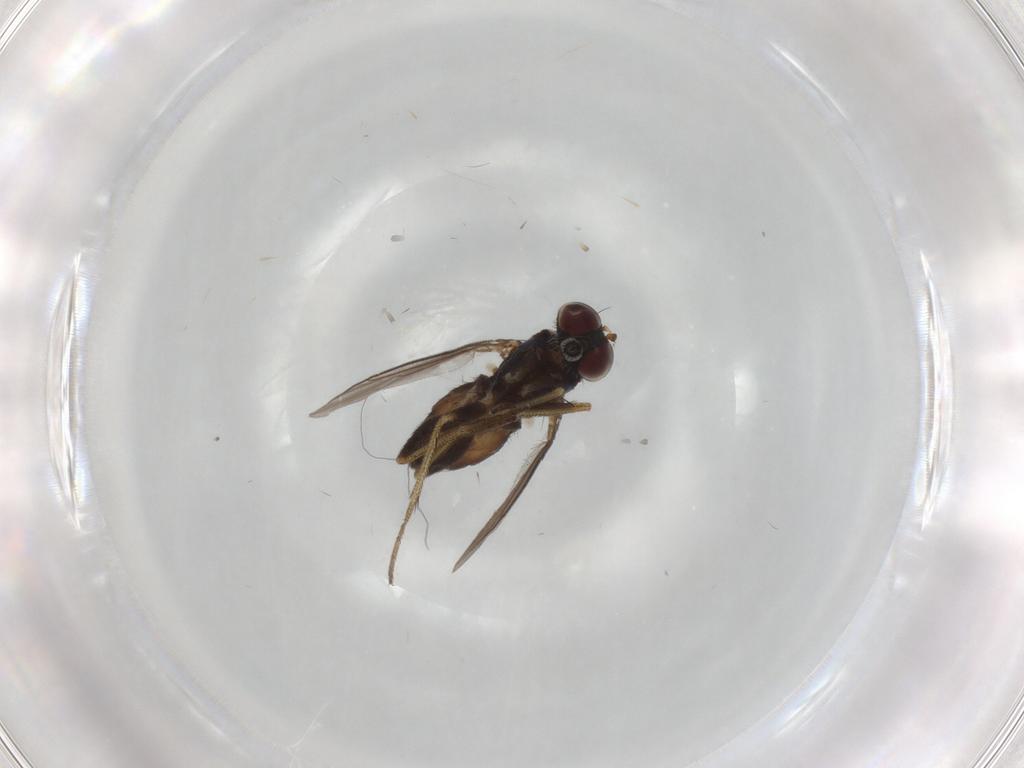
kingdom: Animalia
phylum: Arthropoda
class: Insecta
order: Diptera
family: Dolichopodidae
